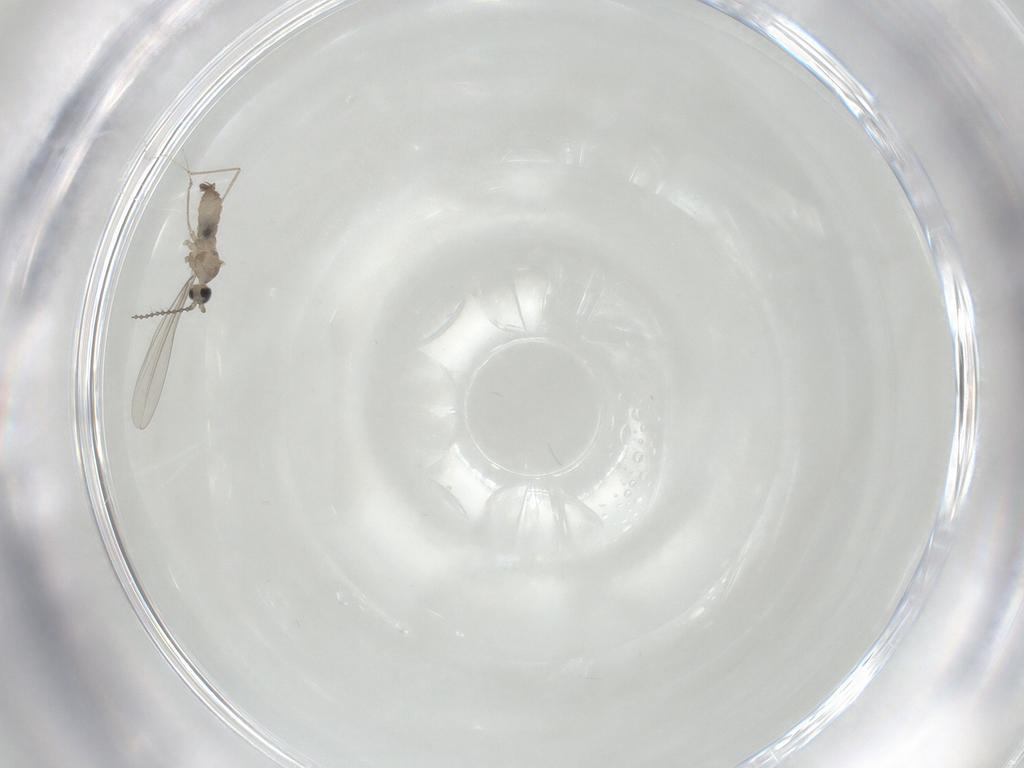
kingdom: Animalia
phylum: Arthropoda
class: Insecta
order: Diptera
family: Cecidomyiidae
